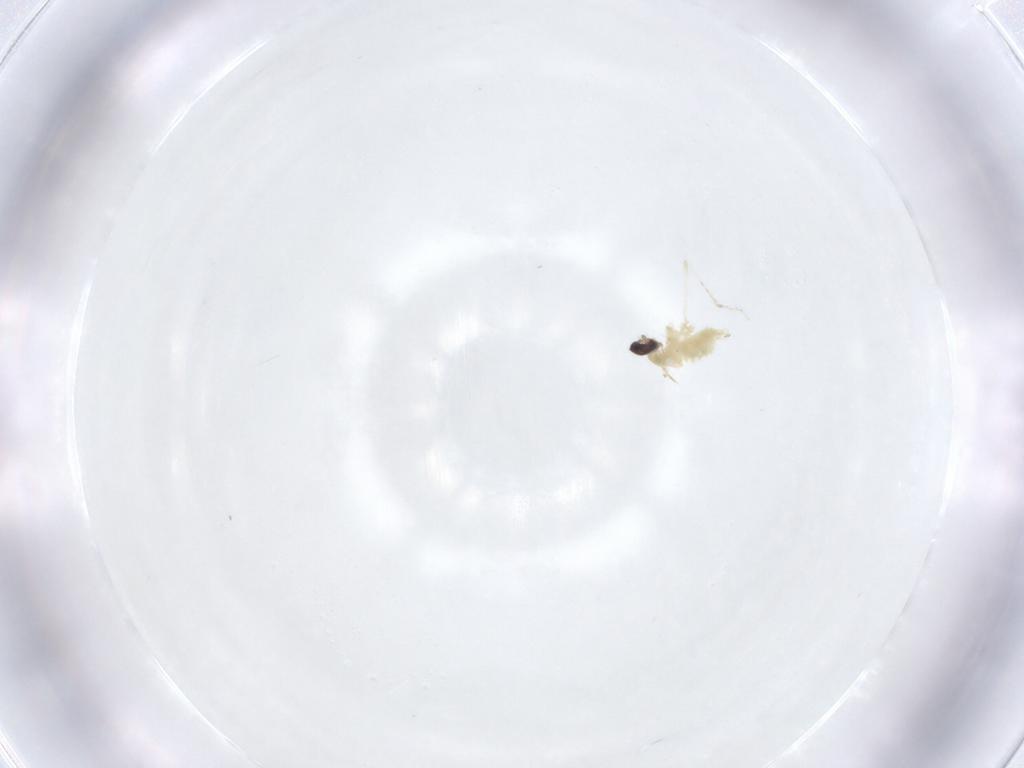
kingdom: Animalia
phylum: Arthropoda
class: Insecta
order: Diptera
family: Cecidomyiidae
